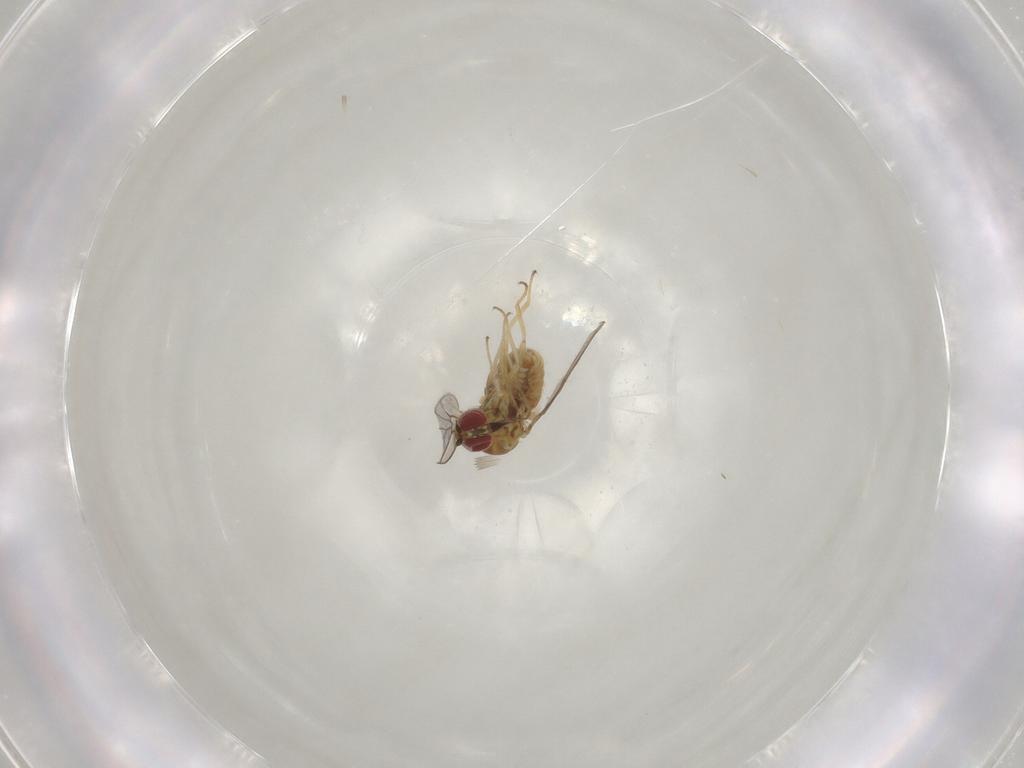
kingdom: Animalia
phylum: Arthropoda
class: Insecta
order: Diptera
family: Mythicomyiidae
